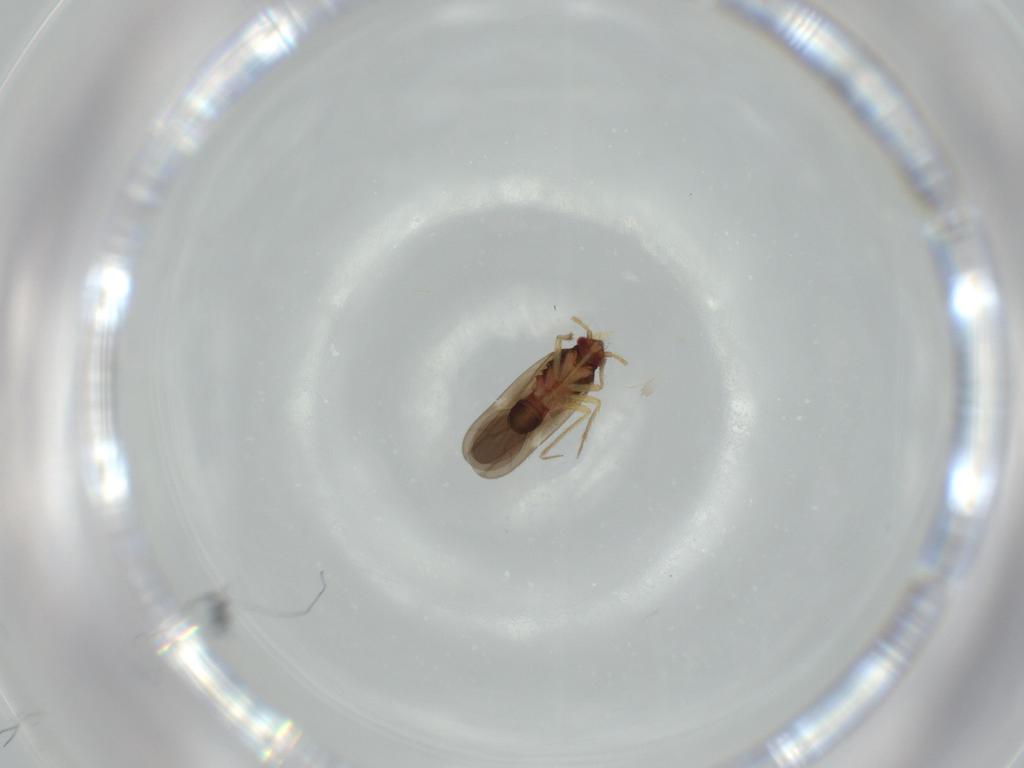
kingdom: Animalia
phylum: Arthropoda
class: Insecta
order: Hemiptera
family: Ceratocombidae
